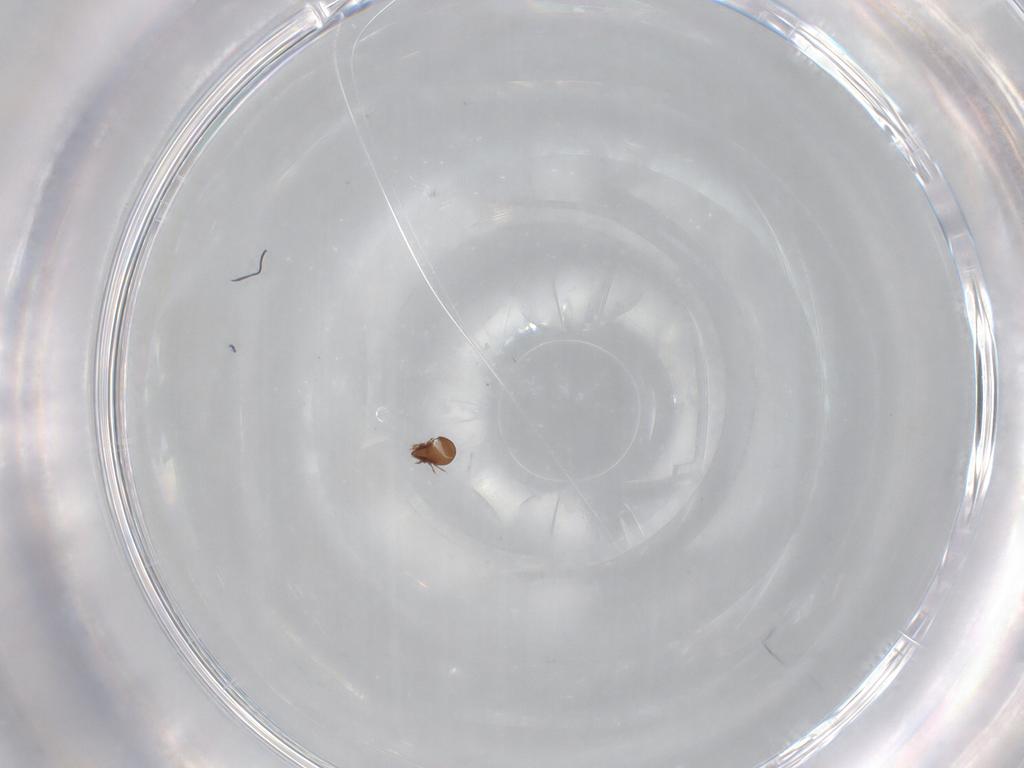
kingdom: Animalia
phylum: Arthropoda
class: Arachnida
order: Sarcoptiformes
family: Tectocepheidae
